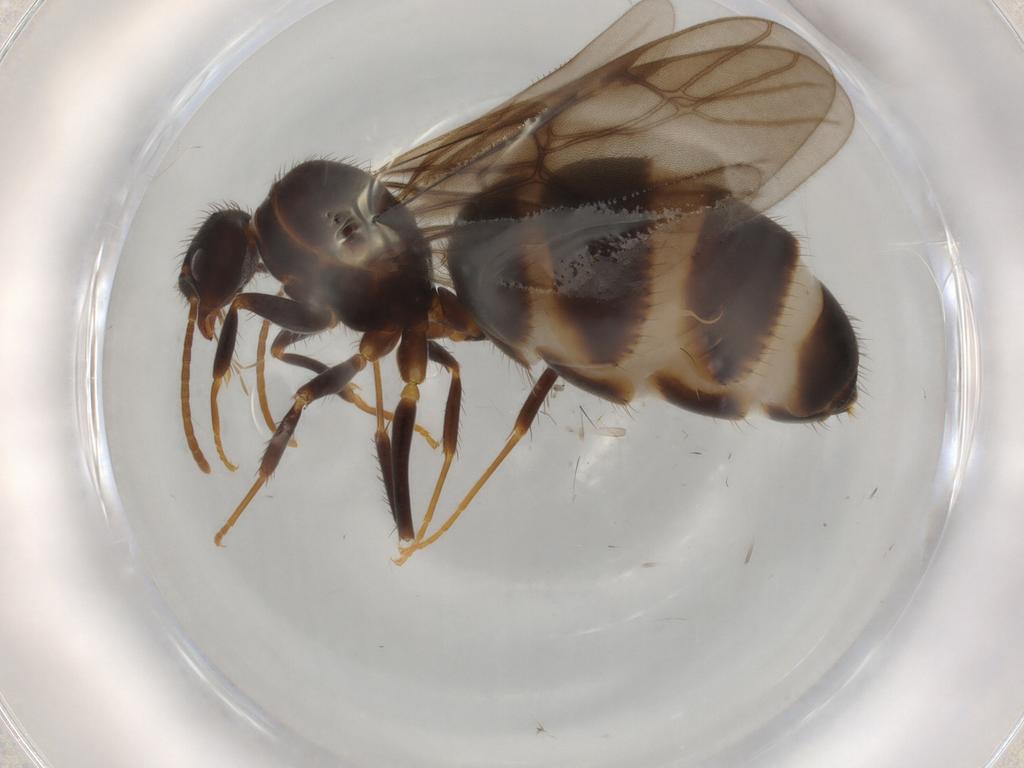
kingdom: Animalia
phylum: Arthropoda
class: Insecta
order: Hymenoptera
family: Formicidae
